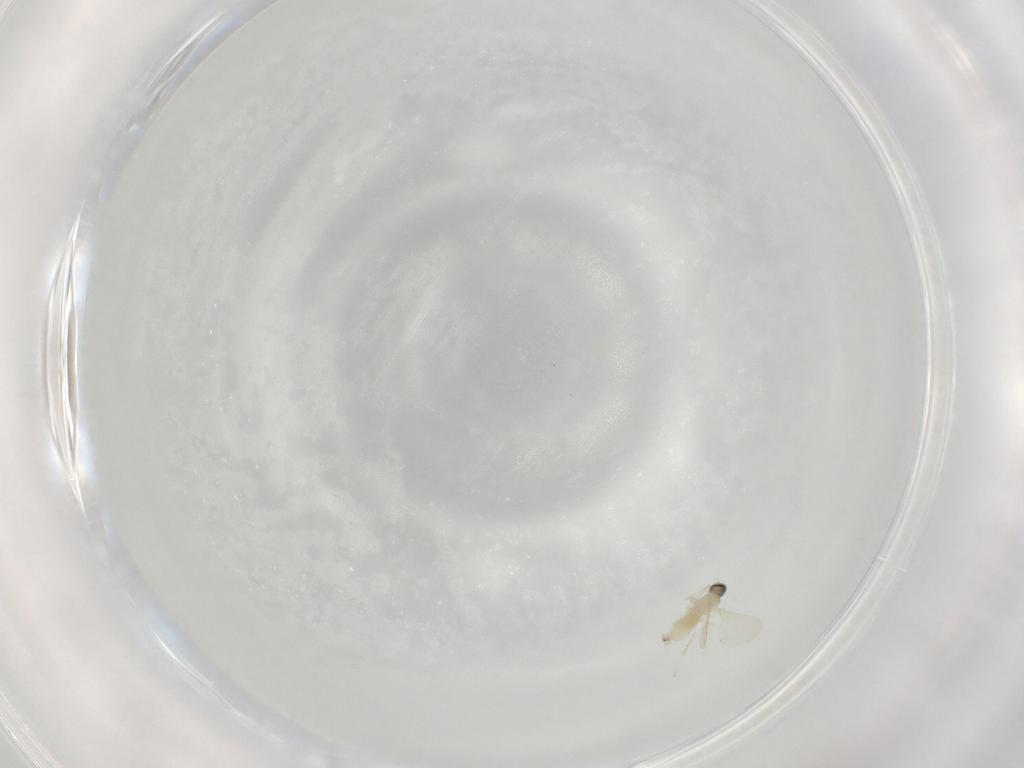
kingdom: Animalia
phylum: Arthropoda
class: Insecta
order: Diptera
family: Cecidomyiidae
